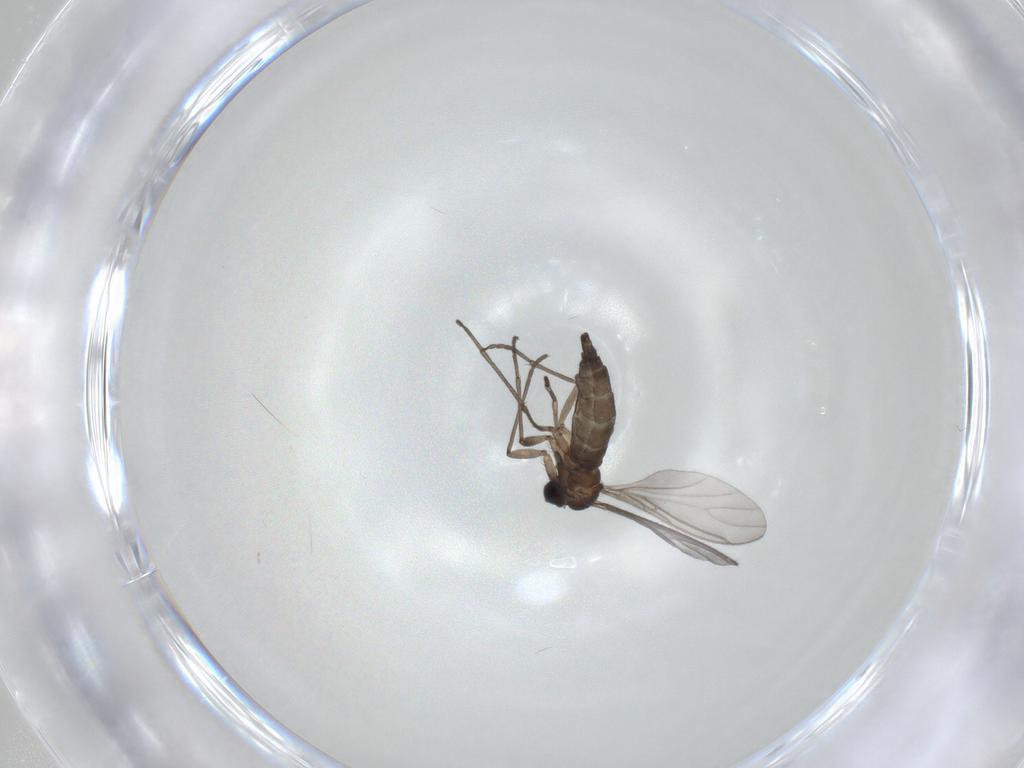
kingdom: Animalia
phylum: Arthropoda
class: Insecta
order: Diptera
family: Sciaridae
